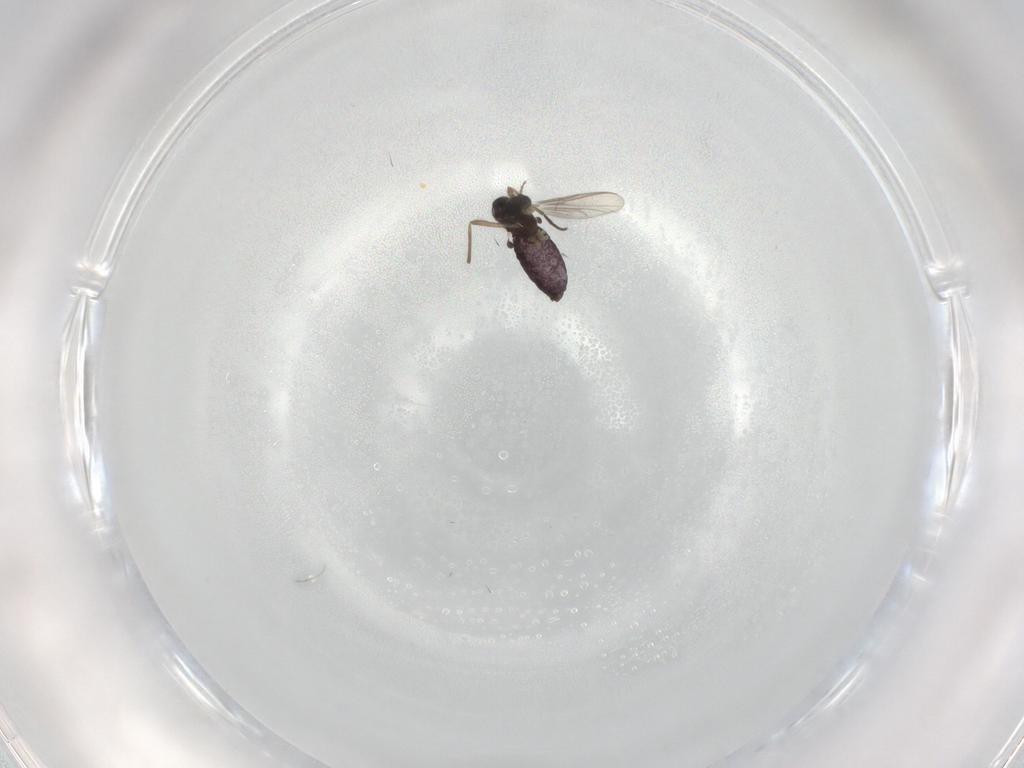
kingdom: Animalia
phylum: Arthropoda
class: Insecta
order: Diptera
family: Chironomidae
